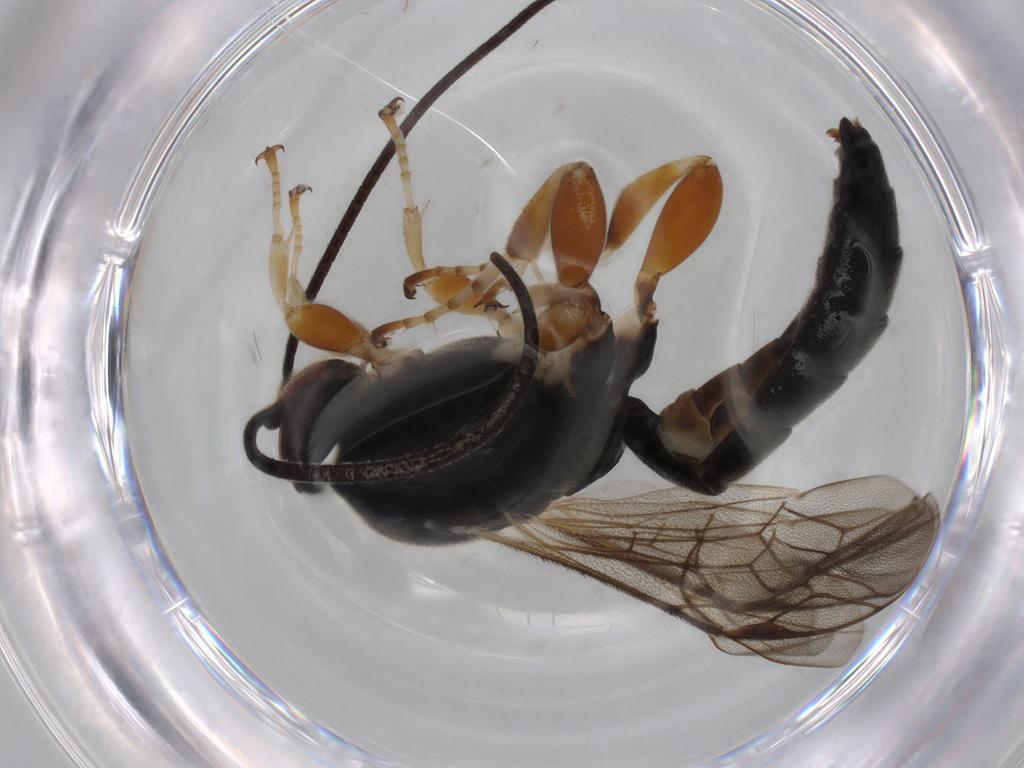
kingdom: Animalia
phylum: Arthropoda
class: Insecta
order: Hymenoptera
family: Ichneumonidae
